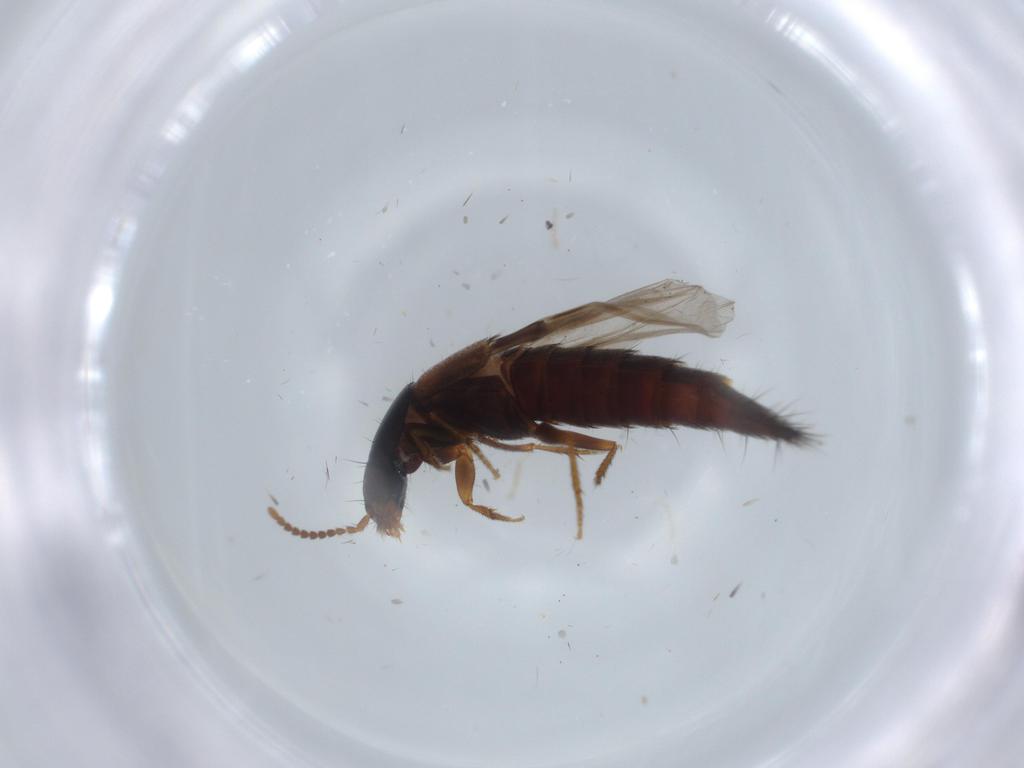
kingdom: Animalia
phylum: Arthropoda
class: Insecta
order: Coleoptera
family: Staphylinidae
